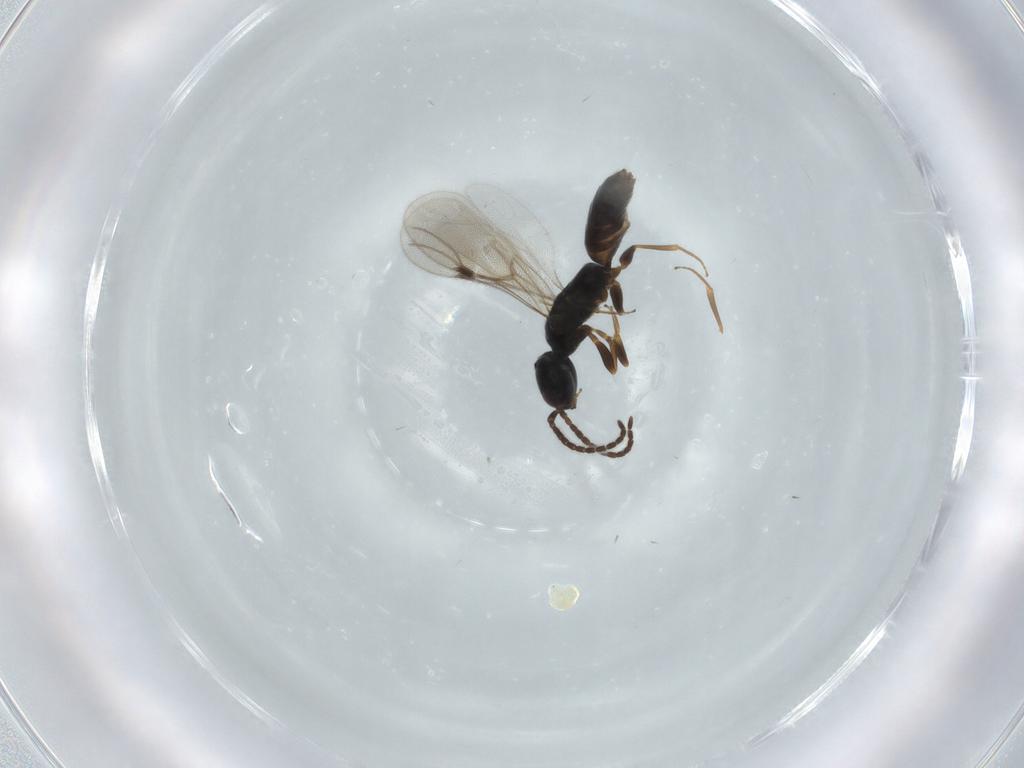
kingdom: Animalia
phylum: Arthropoda
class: Insecta
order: Hymenoptera
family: Bethylidae
